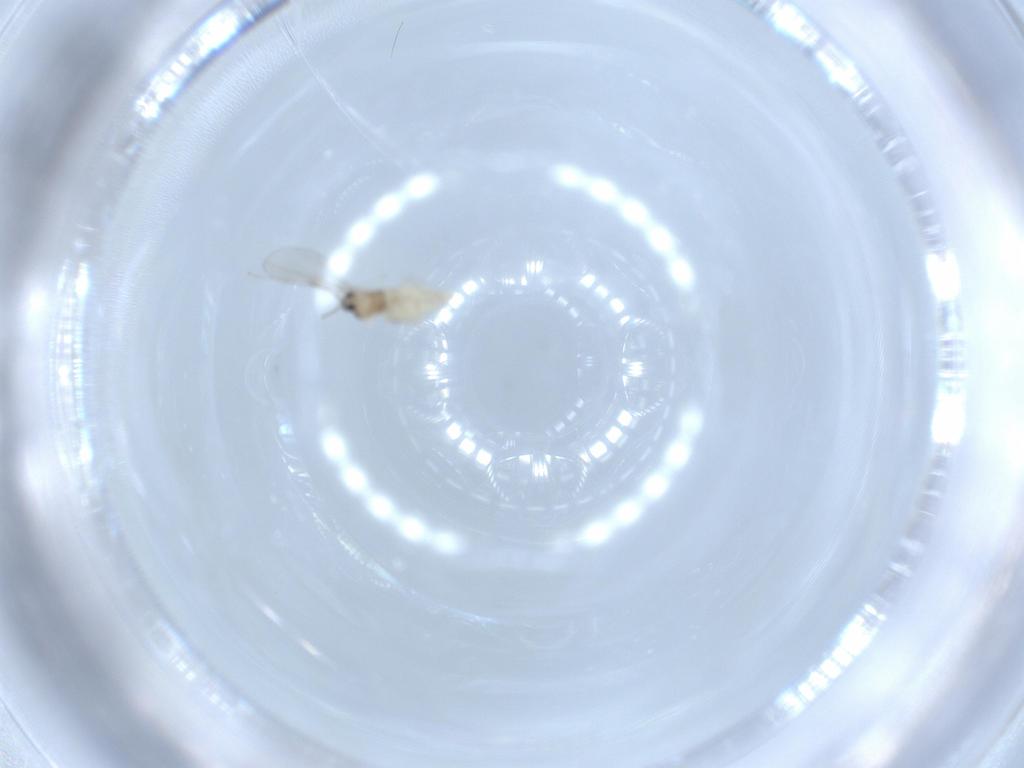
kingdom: Animalia
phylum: Arthropoda
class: Insecta
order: Diptera
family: Cecidomyiidae
